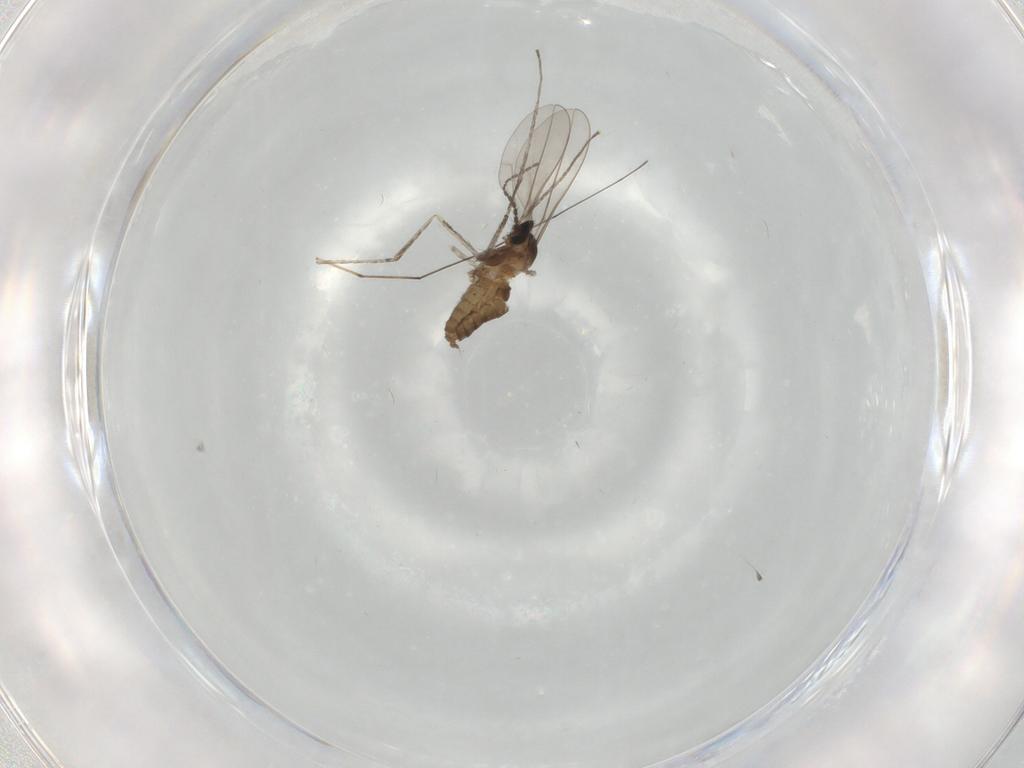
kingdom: Animalia
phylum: Arthropoda
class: Insecta
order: Diptera
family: Cecidomyiidae
